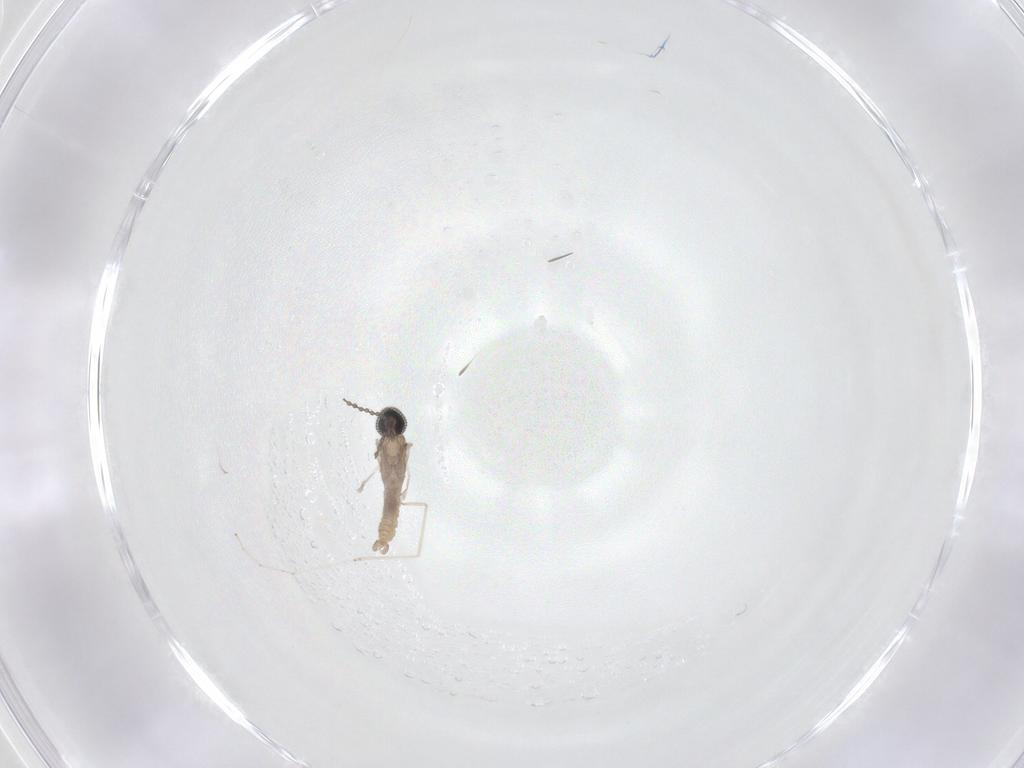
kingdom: Animalia
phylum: Arthropoda
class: Insecta
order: Diptera
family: Cecidomyiidae
